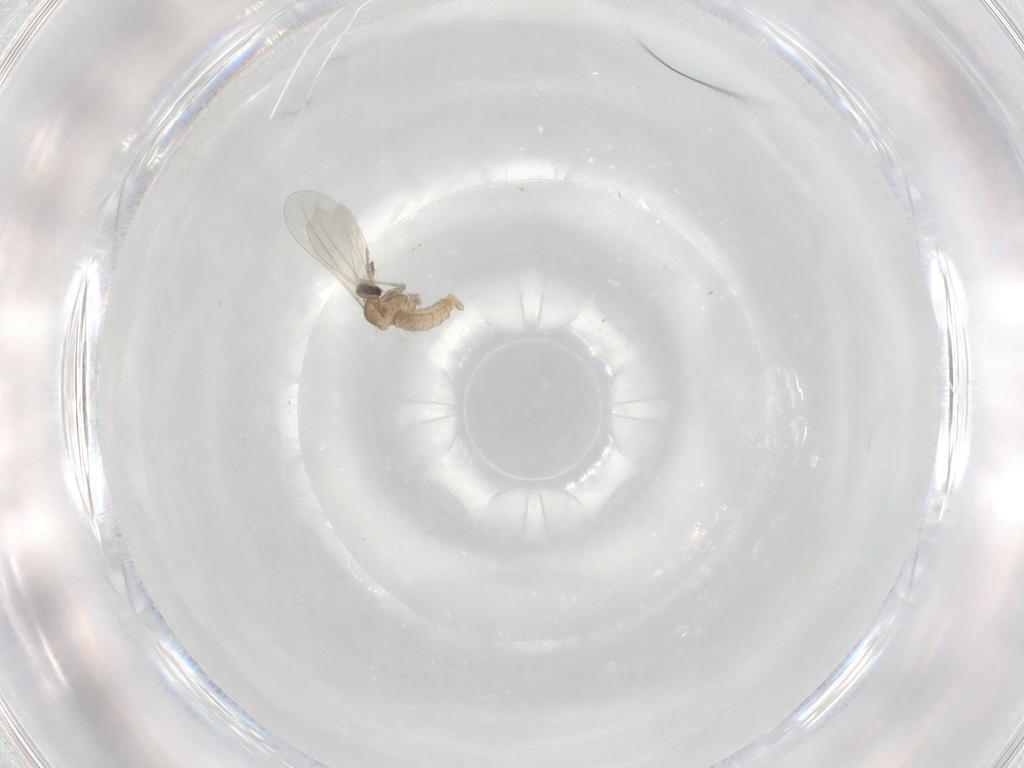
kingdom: Animalia
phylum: Arthropoda
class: Insecta
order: Diptera
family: Cecidomyiidae
